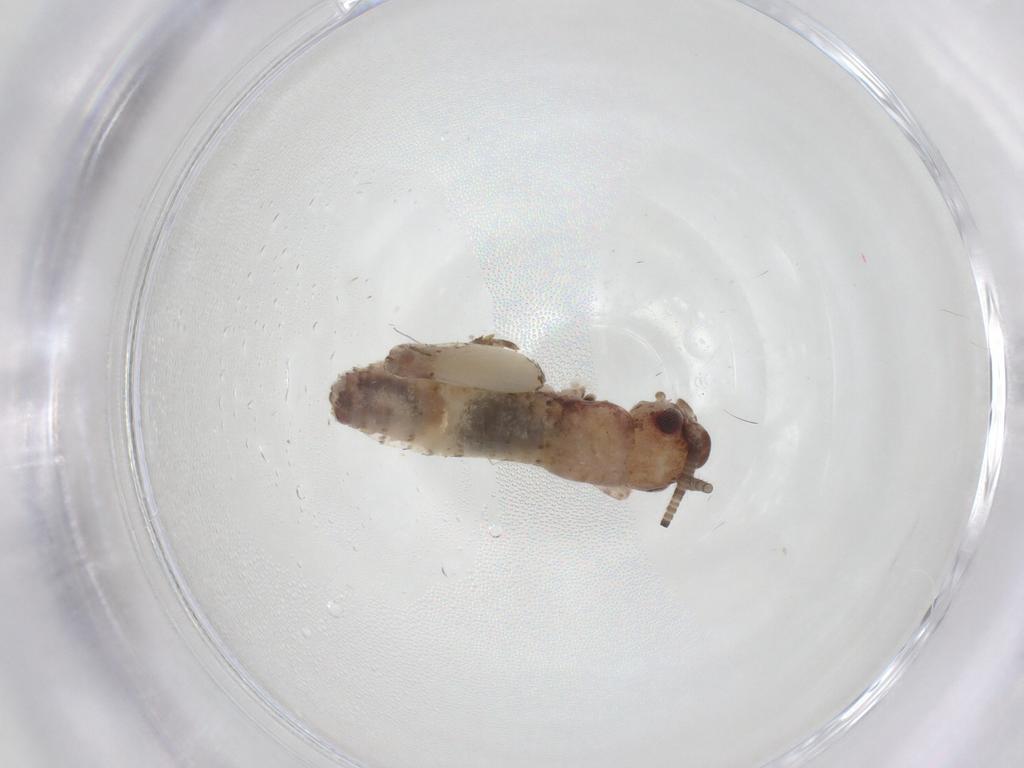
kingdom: Animalia
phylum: Arthropoda
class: Insecta
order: Orthoptera
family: Gryllidae
